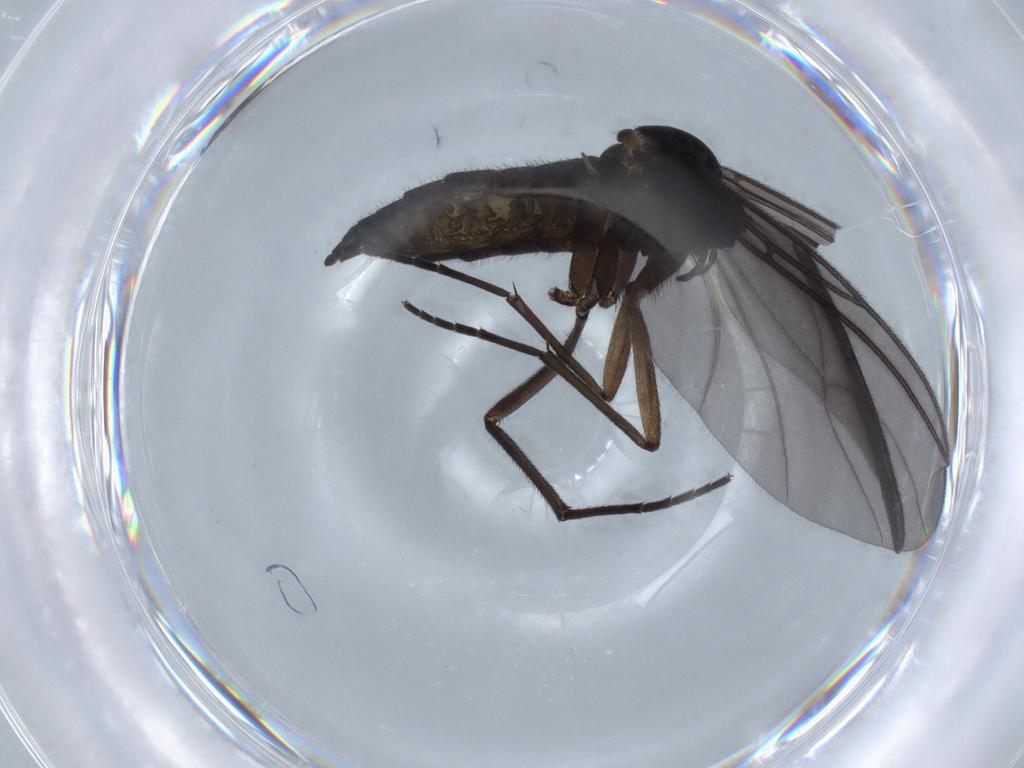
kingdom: Animalia
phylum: Arthropoda
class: Insecta
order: Diptera
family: Sciaridae
